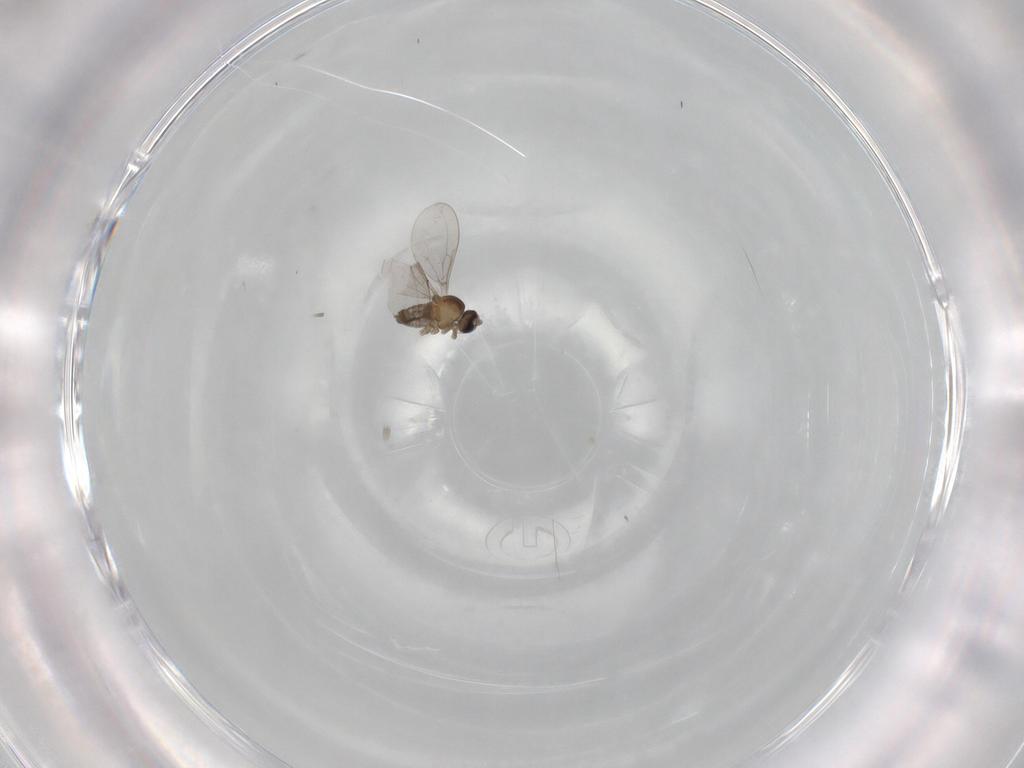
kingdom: Animalia
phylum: Arthropoda
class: Insecta
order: Diptera
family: Cecidomyiidae
